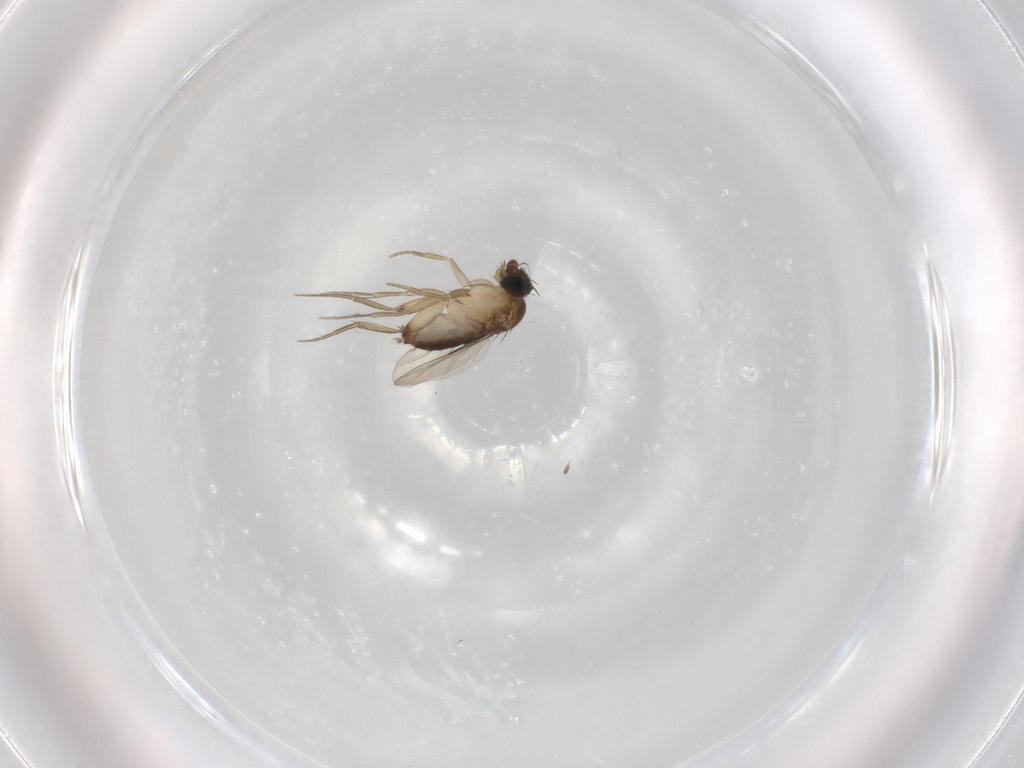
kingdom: Animalia
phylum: Arthropoda
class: Insecta
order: Diptera
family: Phoridae
